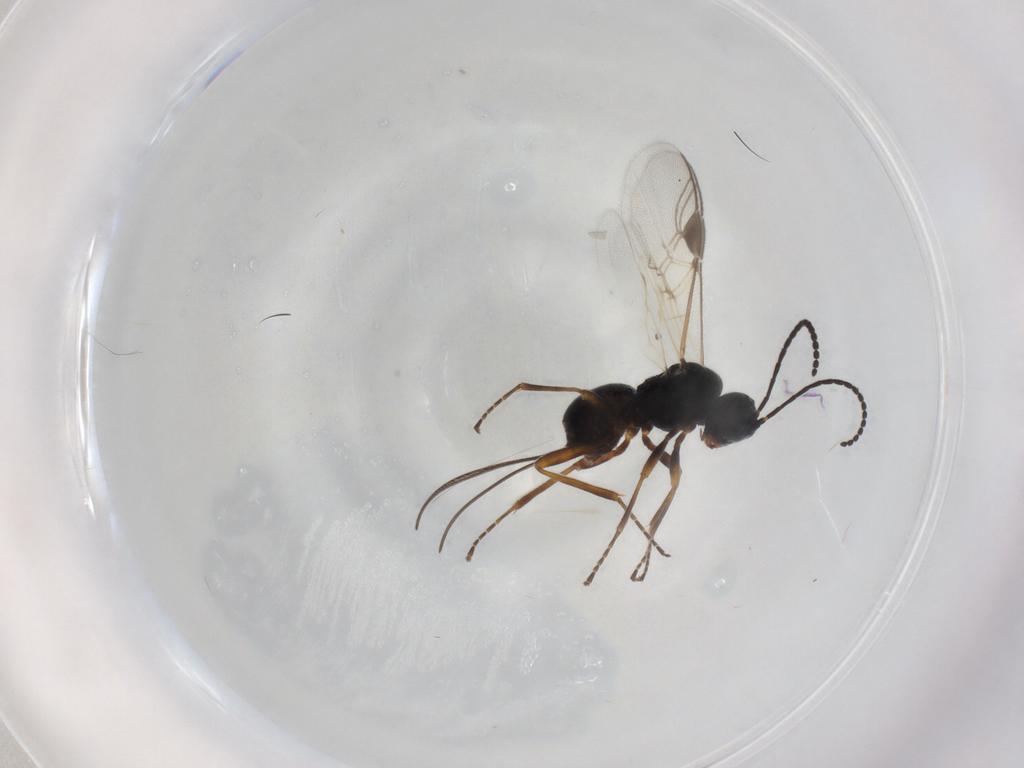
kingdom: Animalia
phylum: Arthropoda
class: Insecta
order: Hymenoptera
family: Braconidae
